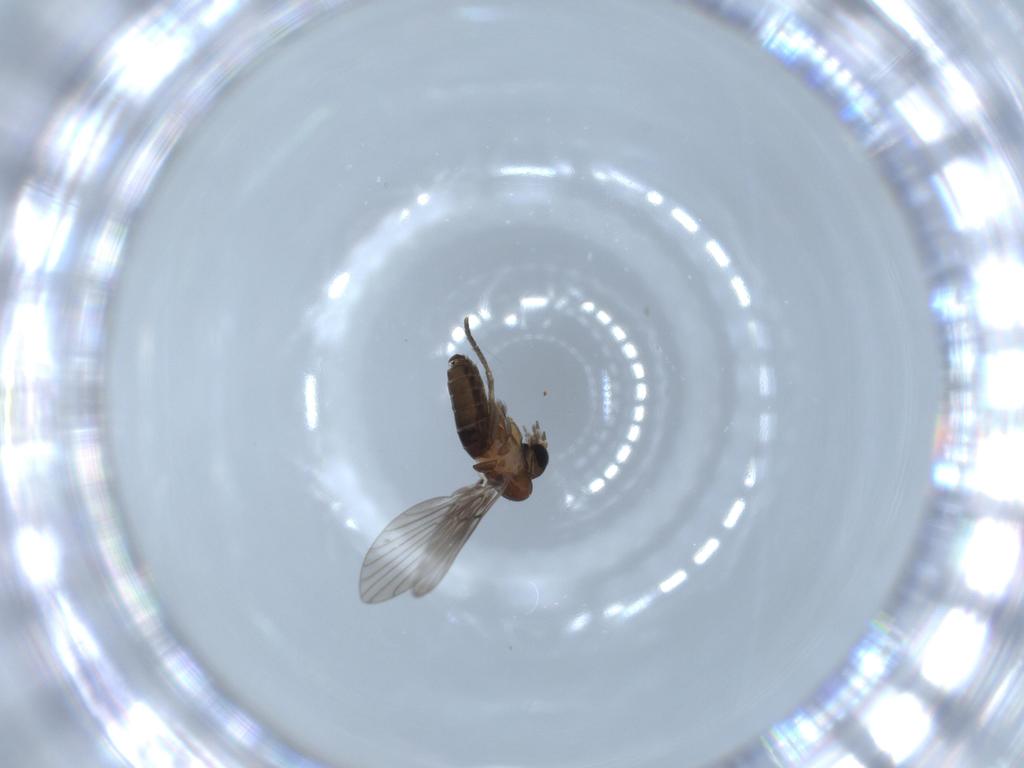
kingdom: Animalia
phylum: Arthropoda
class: Insecta
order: Diptera
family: Psychodidae
